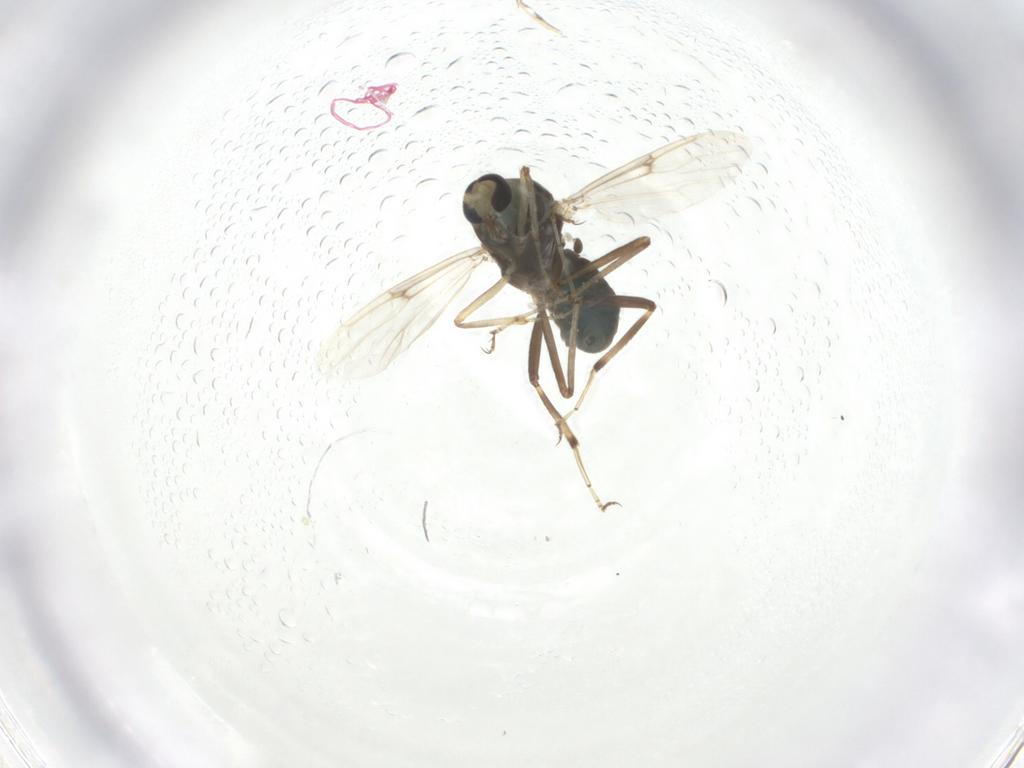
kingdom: Animalia
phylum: Arthropoda
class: Insecta
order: Diptera
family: Ceratopogonidae
